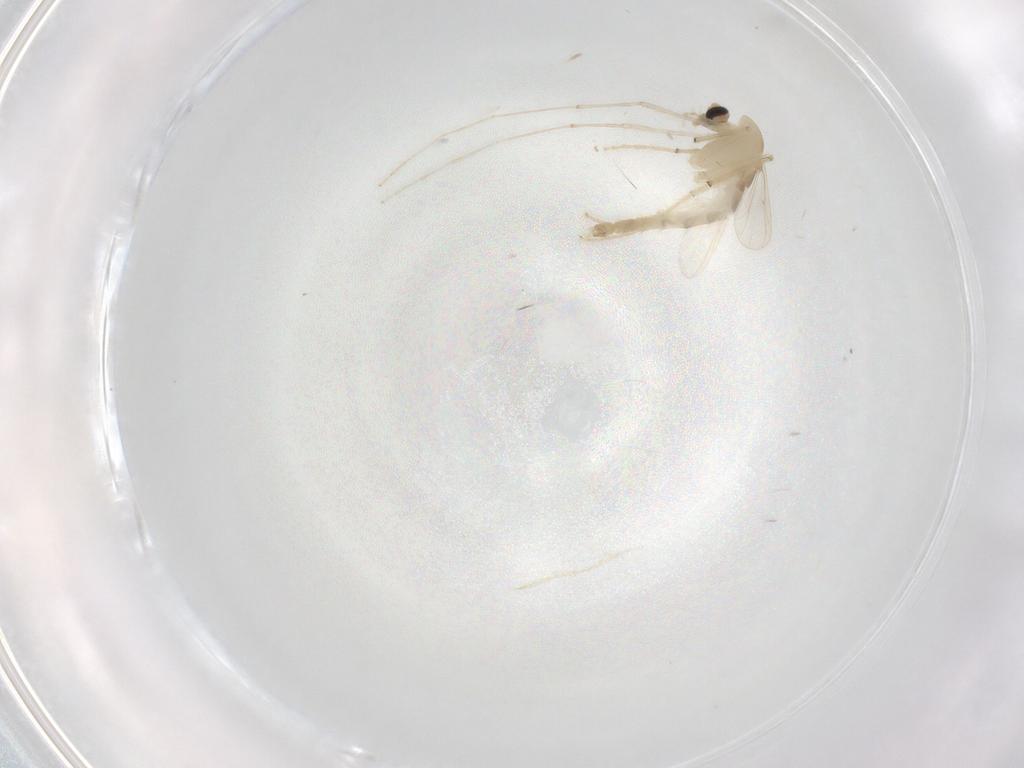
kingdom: Animalia
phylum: Arthropoda
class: Insecta
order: Diptera
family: Chironomidae
